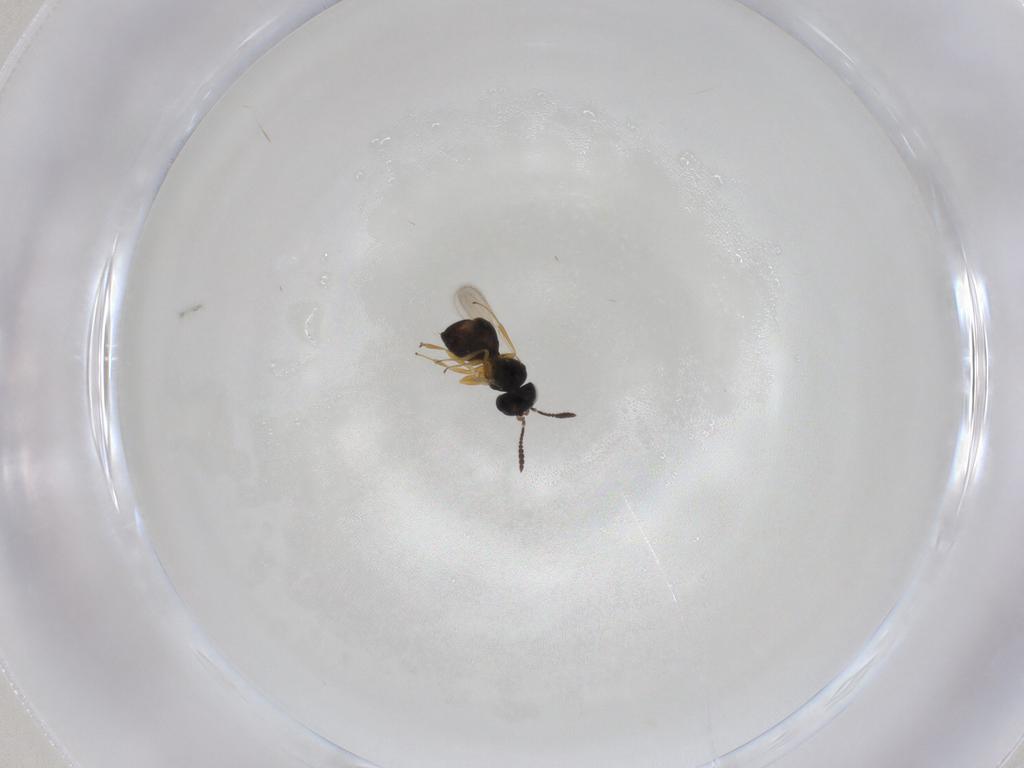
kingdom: Animalia
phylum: Arthropoda
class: Insecta
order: Hymenoptera
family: Scelionidae
